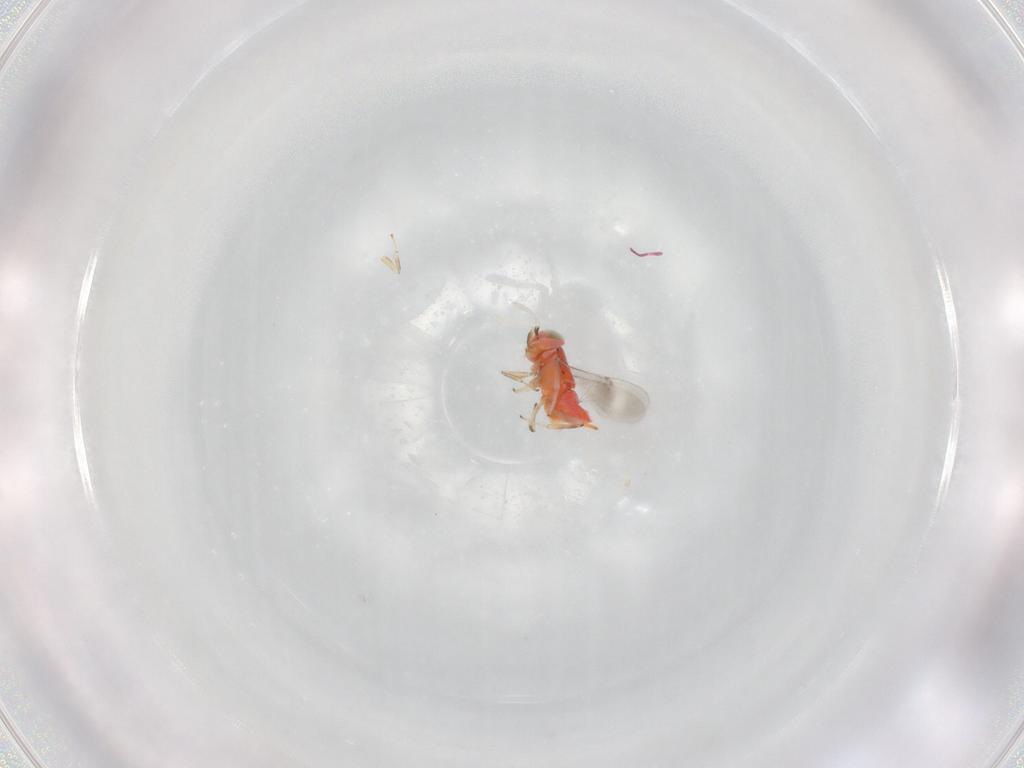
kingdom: Animalia
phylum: Arthropoda
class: Insecta
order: Hymenoptera
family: Encyrtidae
